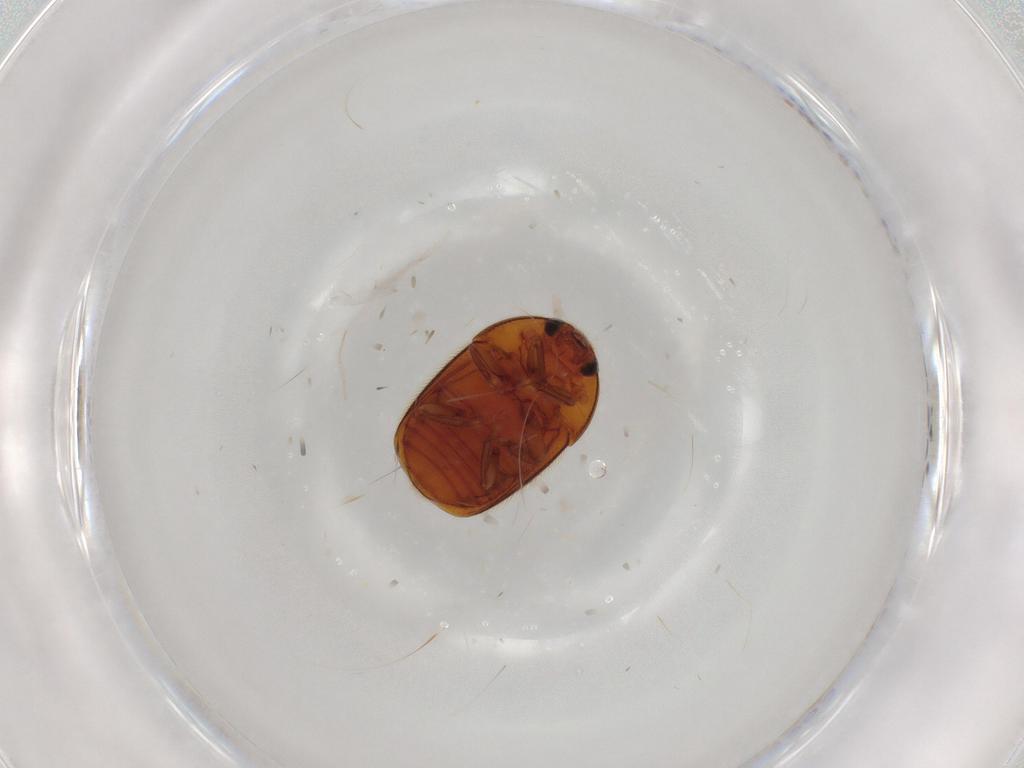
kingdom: Animalia
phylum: Arthropoda
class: Insecta
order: Coleoptera
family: Nitidulidae
